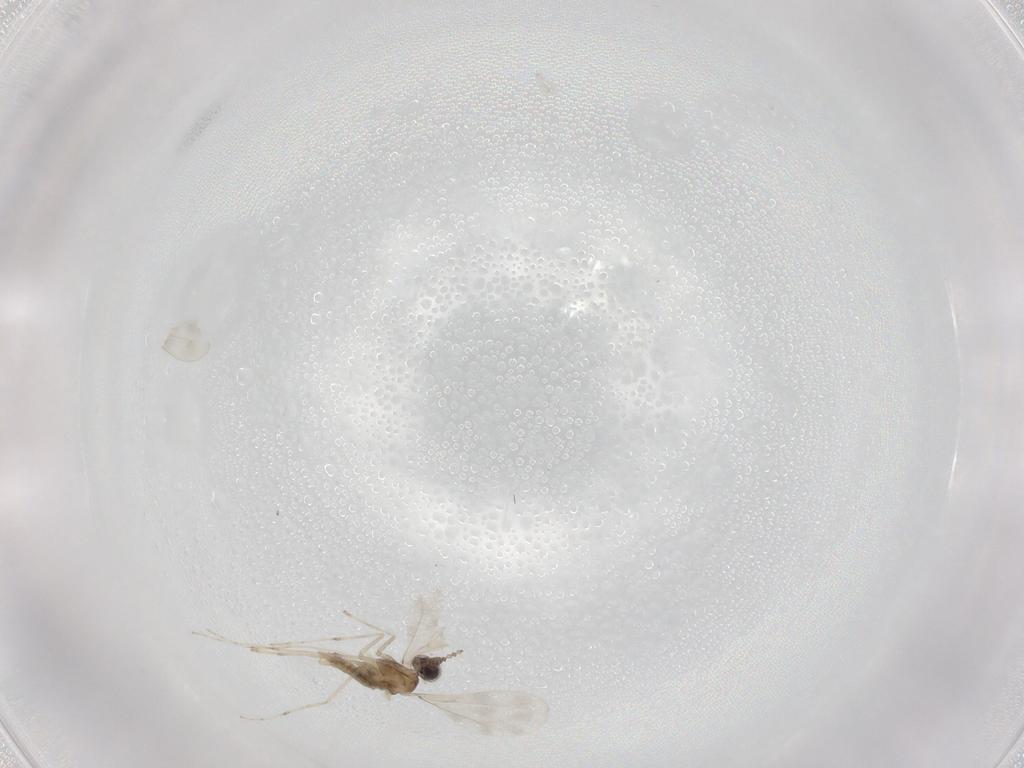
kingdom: Animalia
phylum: Arthropoda
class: Insecta
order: Diptera
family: Cecidomyiidae
